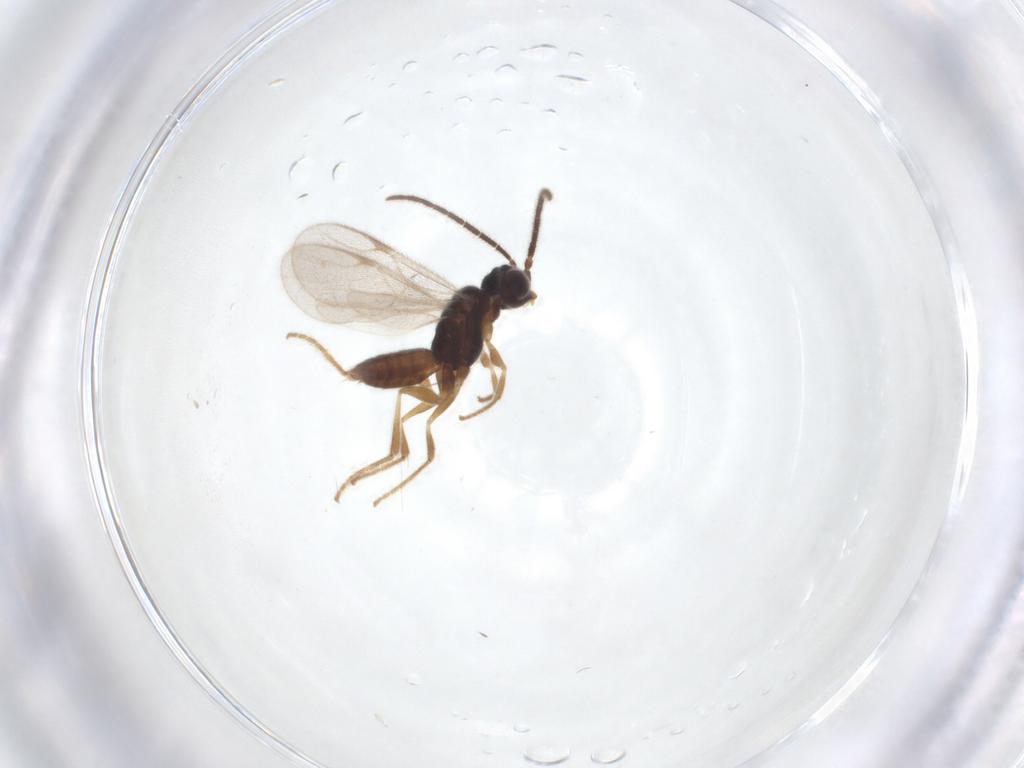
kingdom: Animalia
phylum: Arthropoda
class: Insecta
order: Hymenoptera
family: Dryinidae
